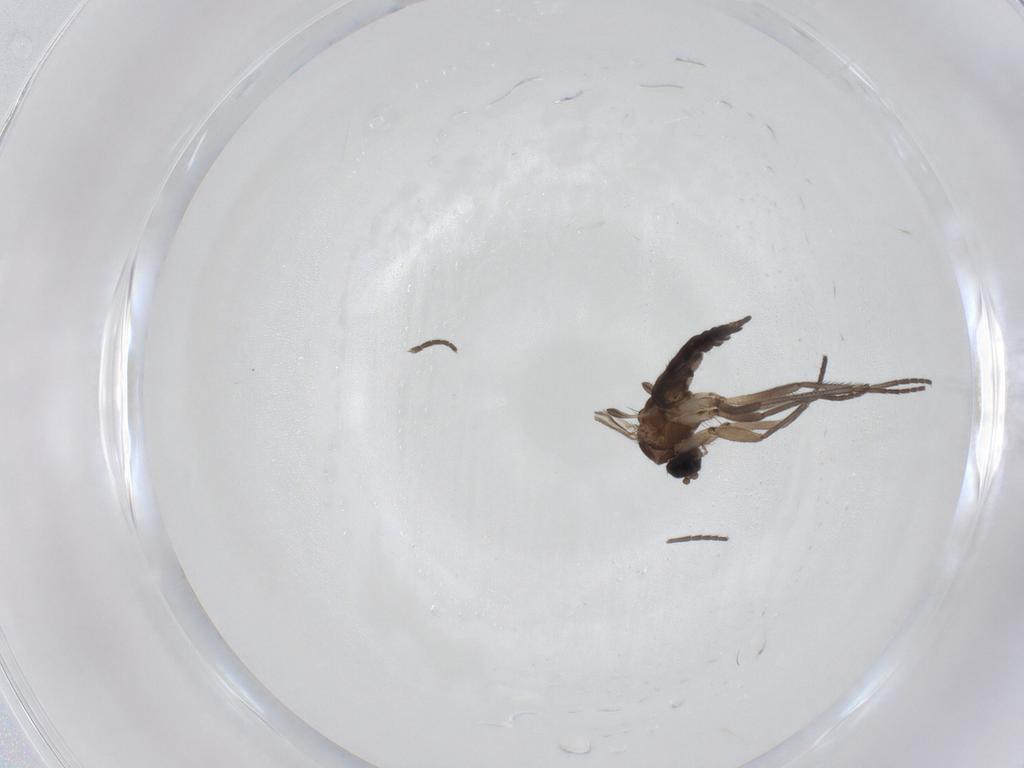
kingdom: Animalia
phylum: Arthropoda
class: Insecta
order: Diptera
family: Sciaridae
